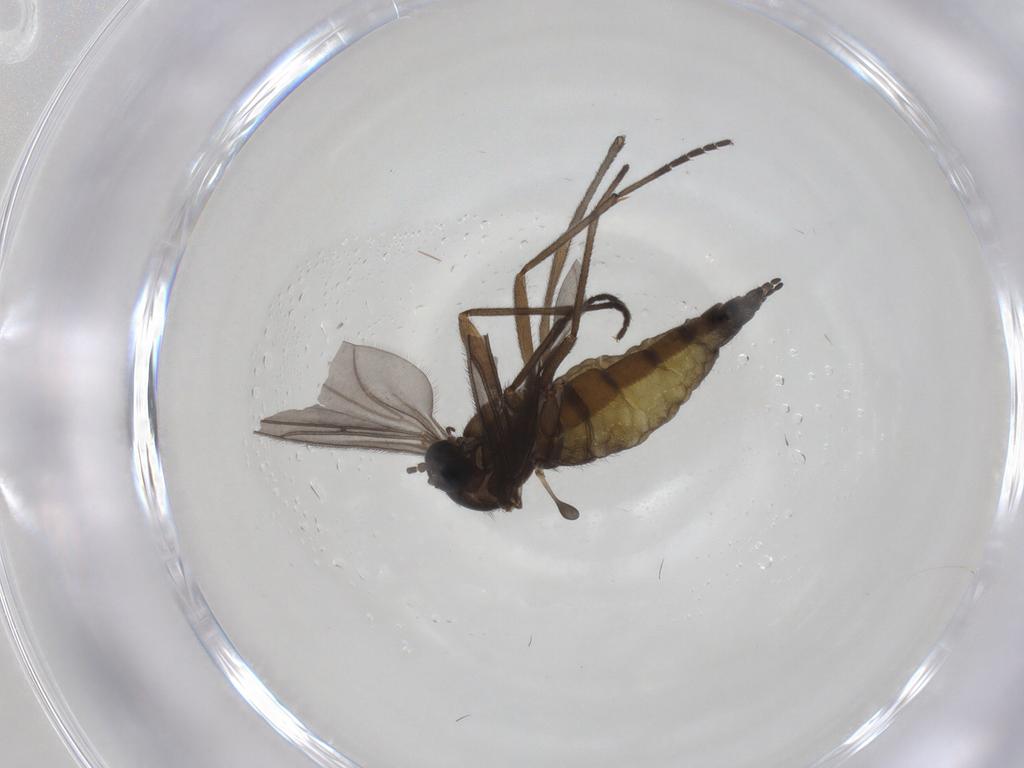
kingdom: Animalia
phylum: Arthropoda
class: Insecta
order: Diptera
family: Sciaridae
